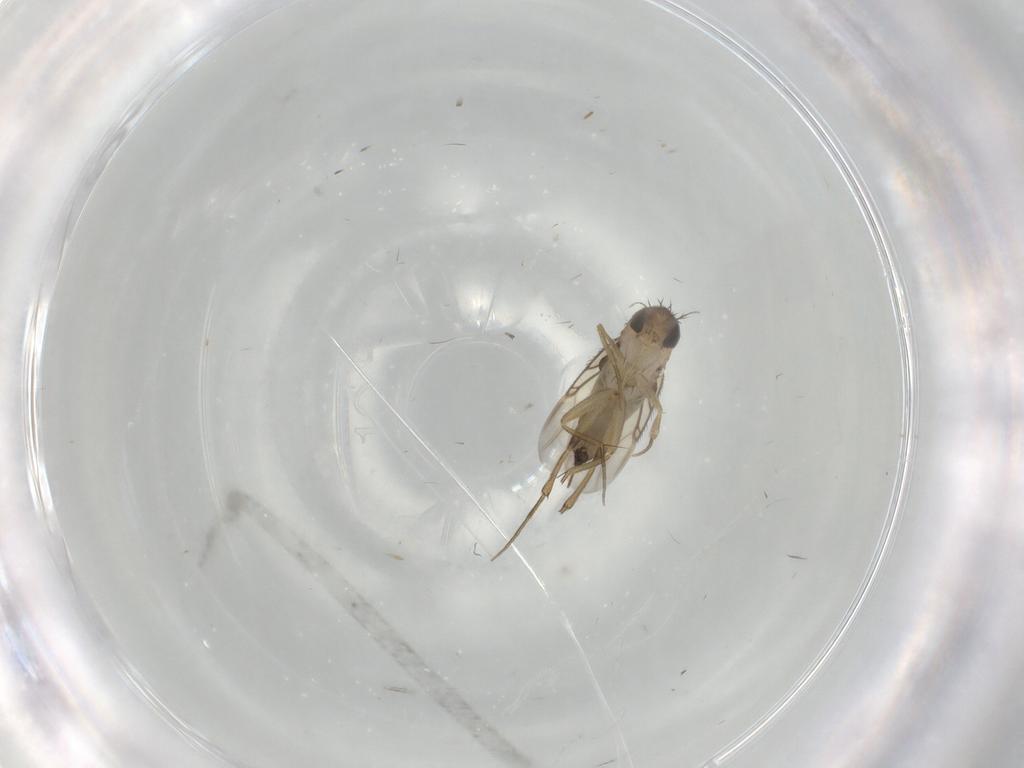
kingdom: Animalia
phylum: Arthropoda
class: Insecta
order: Diptera
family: Phoridae
